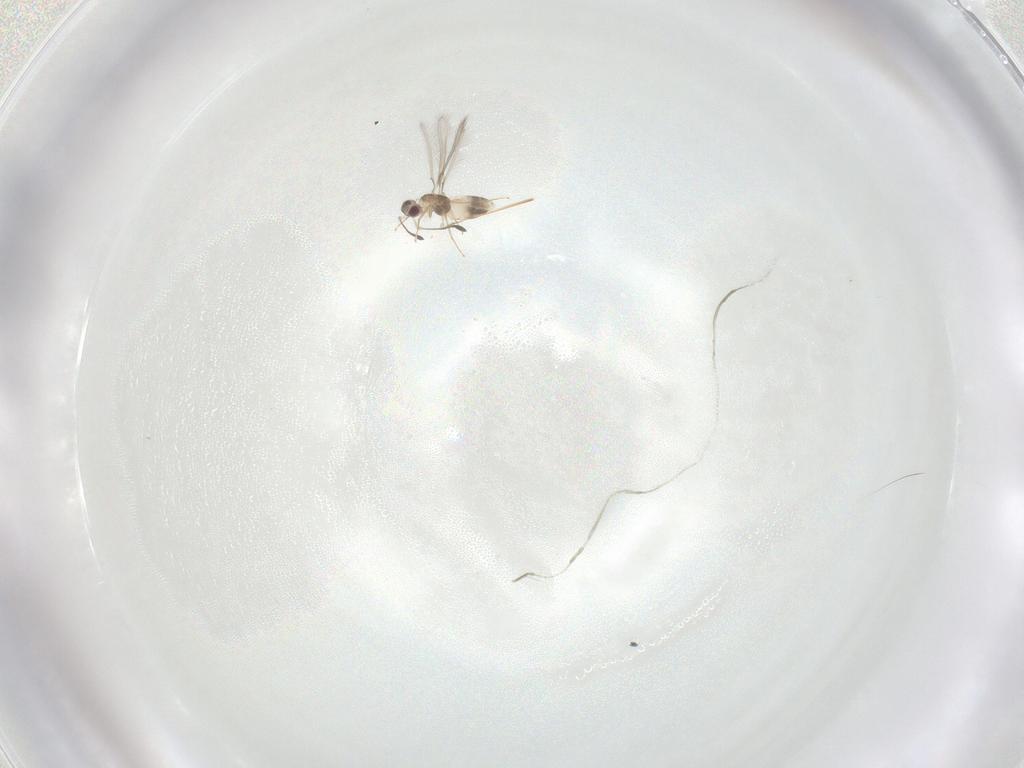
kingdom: Animalia
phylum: Arthropoda
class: Insecta
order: Hymenoptera
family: Mymaridae
